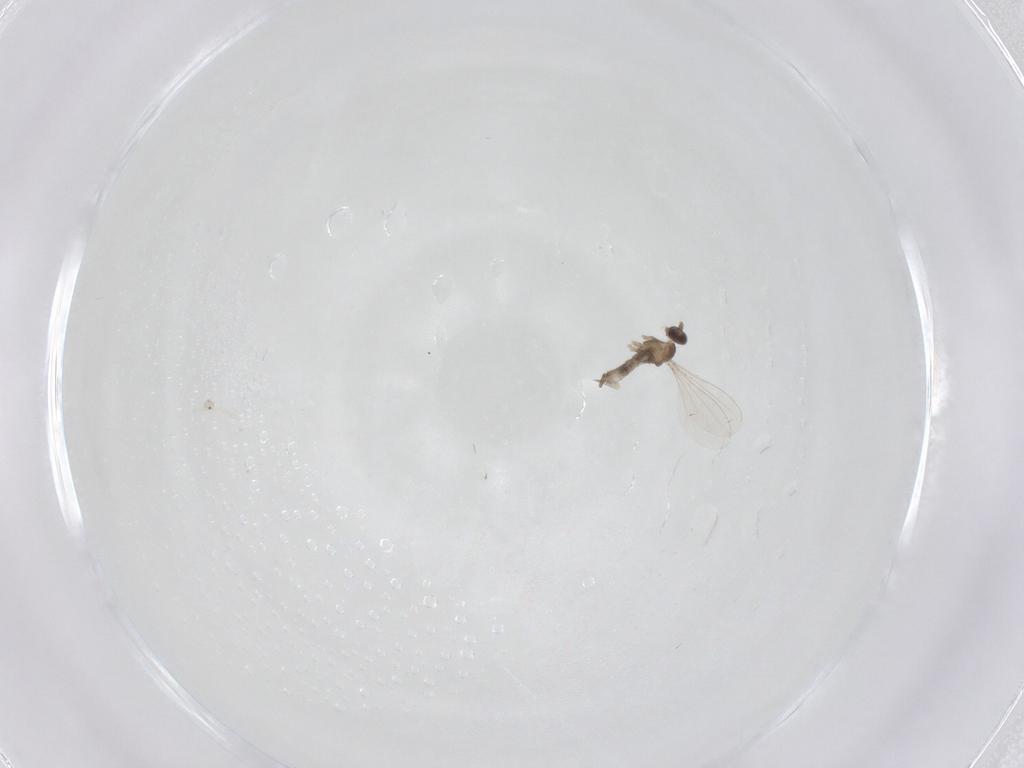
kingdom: Animalia
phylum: Arthropoda
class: Insecta
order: Diptera
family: Cecidomyiidae
